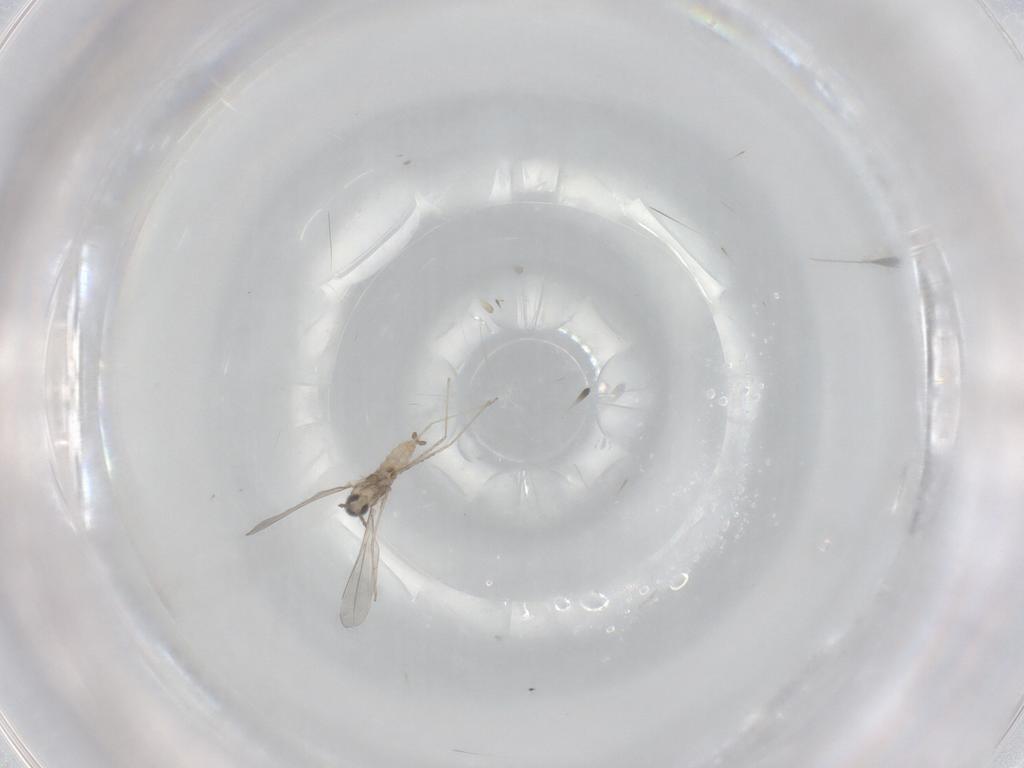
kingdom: Animalia
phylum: Arthropoda
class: Insecta
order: Diptera
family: Ceratopogonidae
